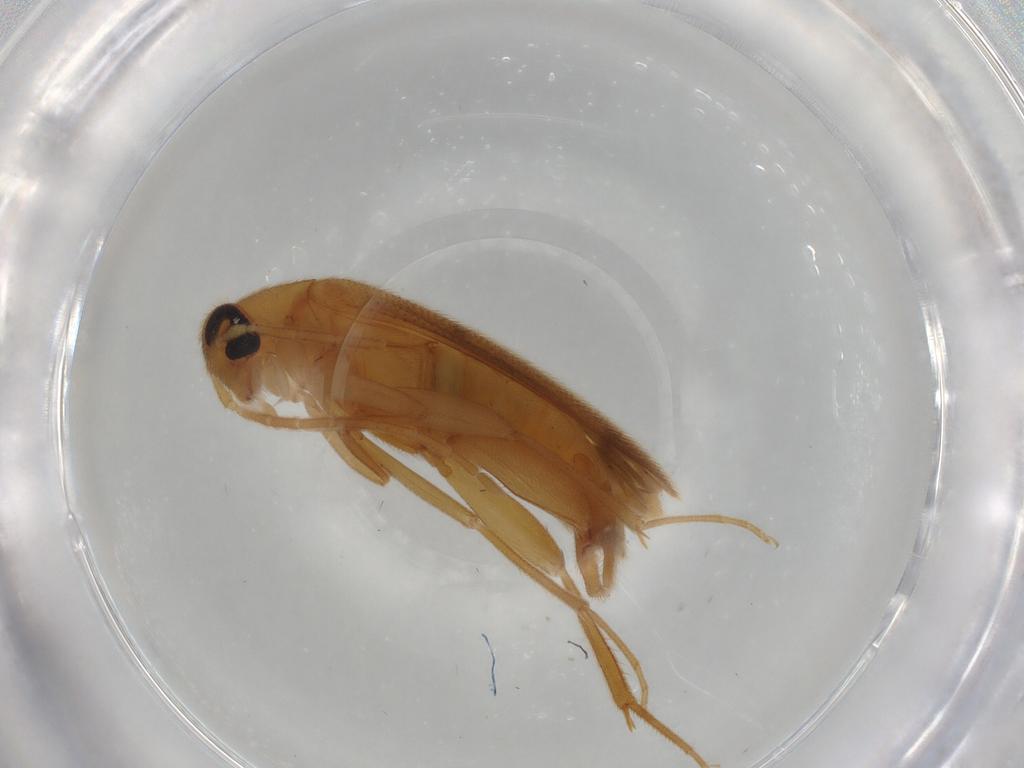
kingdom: Animalia
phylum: Arthropoda
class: Insecta
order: Coleoptera
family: Scraptiidae
